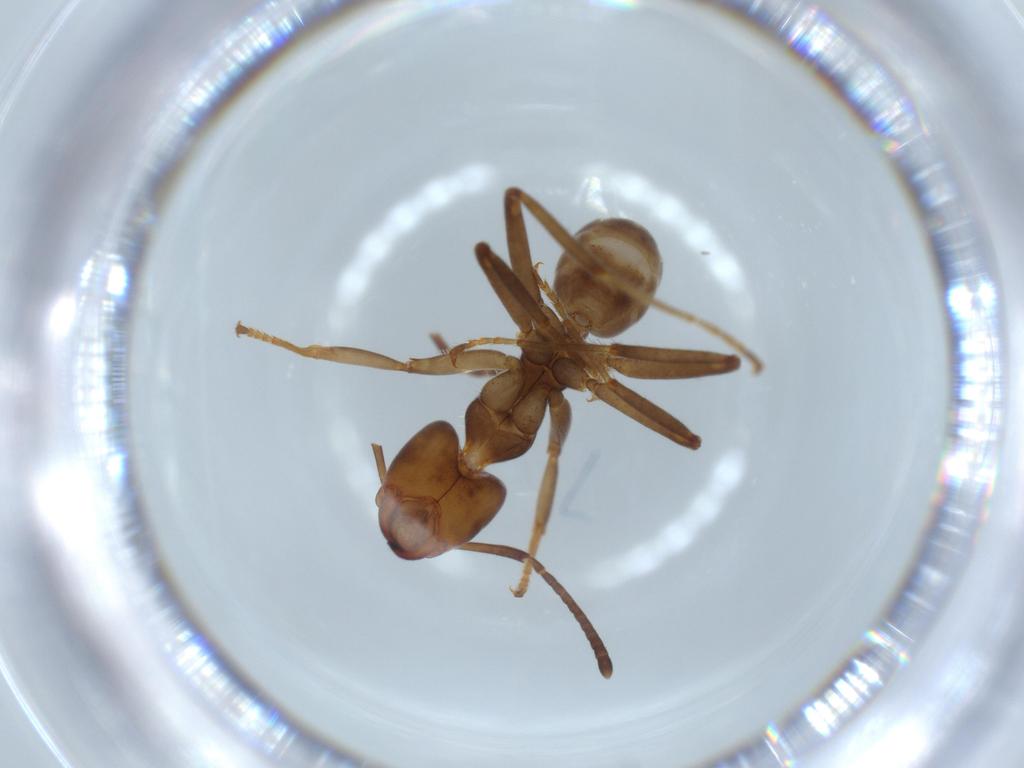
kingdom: Animalia
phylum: Arthropoda
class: Insecta
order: Hymenoptera
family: Formicidae
